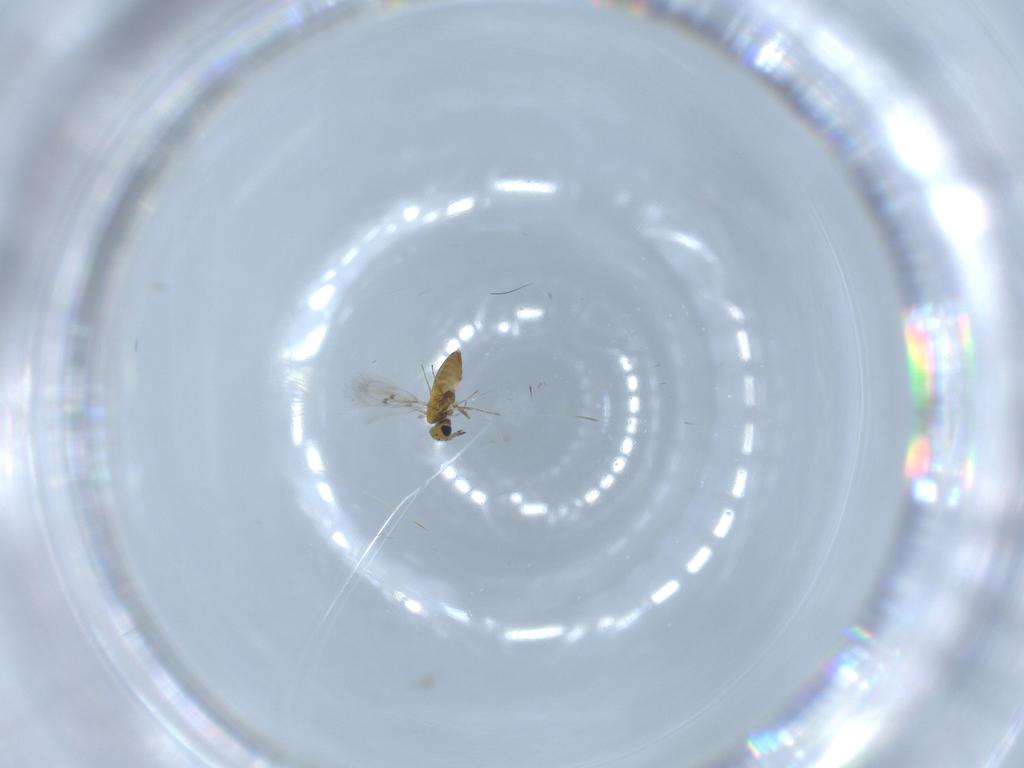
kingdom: Animalia
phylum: Arthropoda
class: Insecta
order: Hymenoptera
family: Trichogrammatidae
